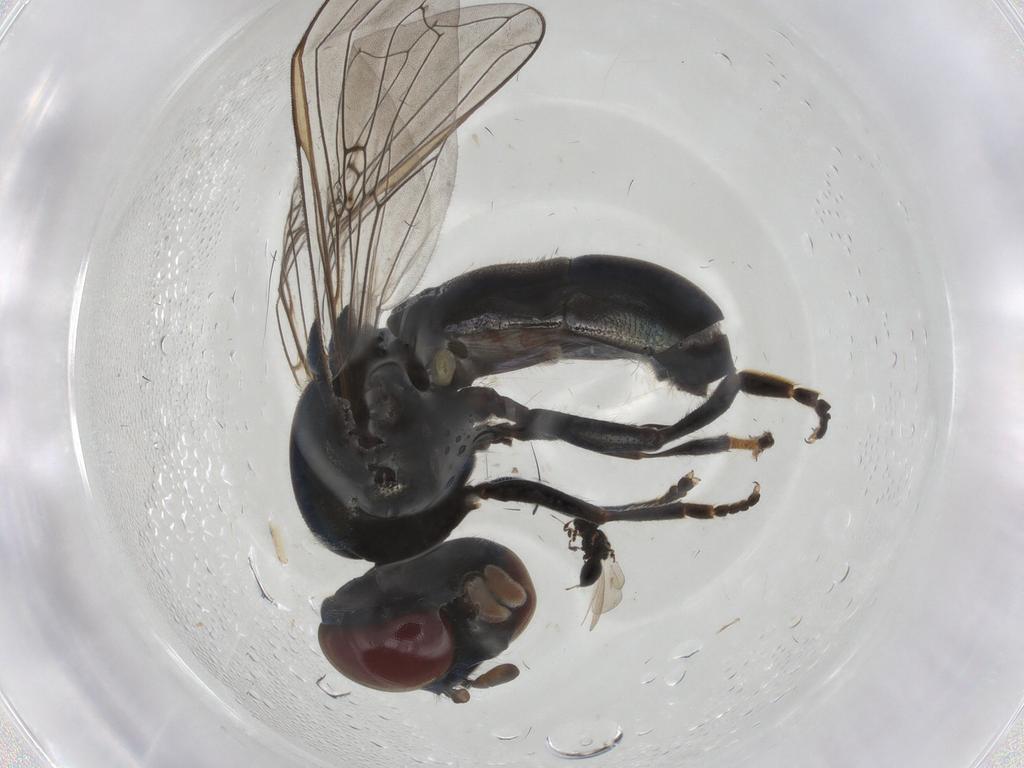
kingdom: Animalia
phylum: Arthropoda
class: Insecta
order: Diptera
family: Syrphidae
